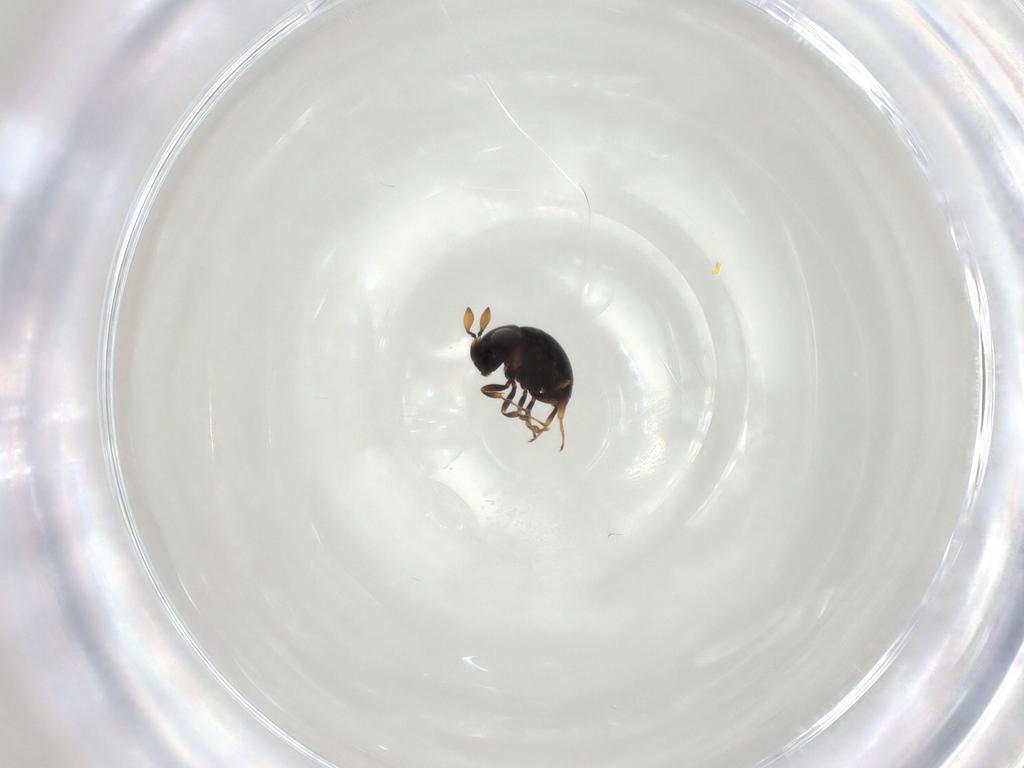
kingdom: Animalia
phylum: Arthropoda
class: Insecta
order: Hymenoptera
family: Scelionidae
